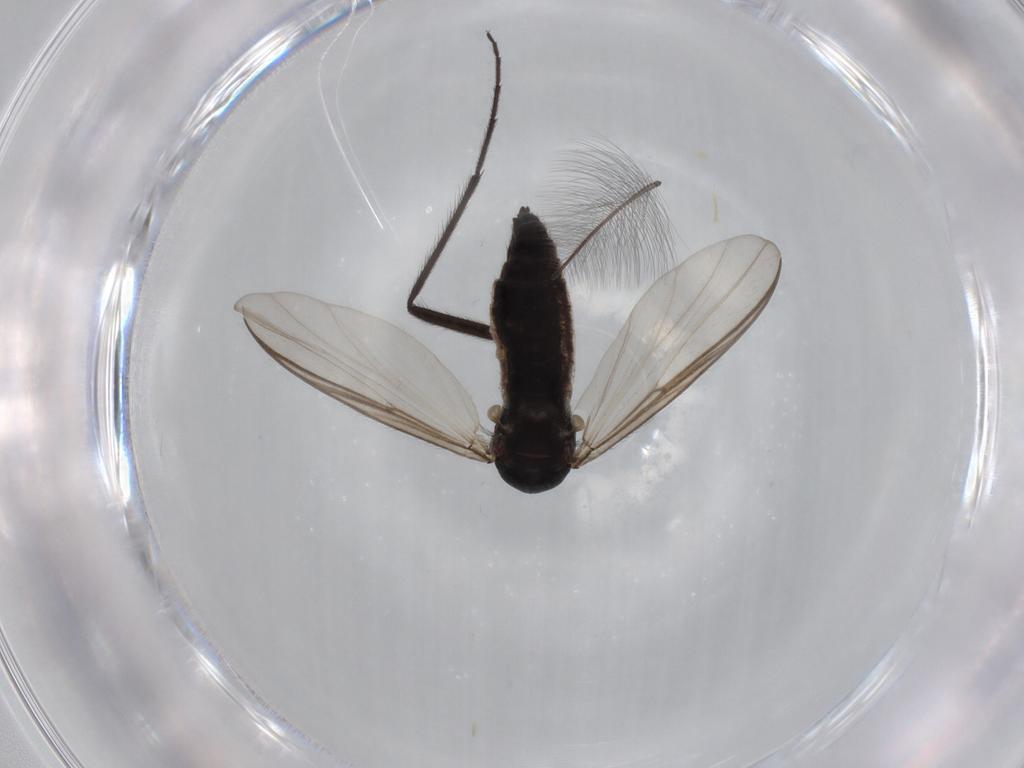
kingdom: Animalia
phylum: Arthropoda
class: Insecta
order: Diptera
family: Chironomidae
